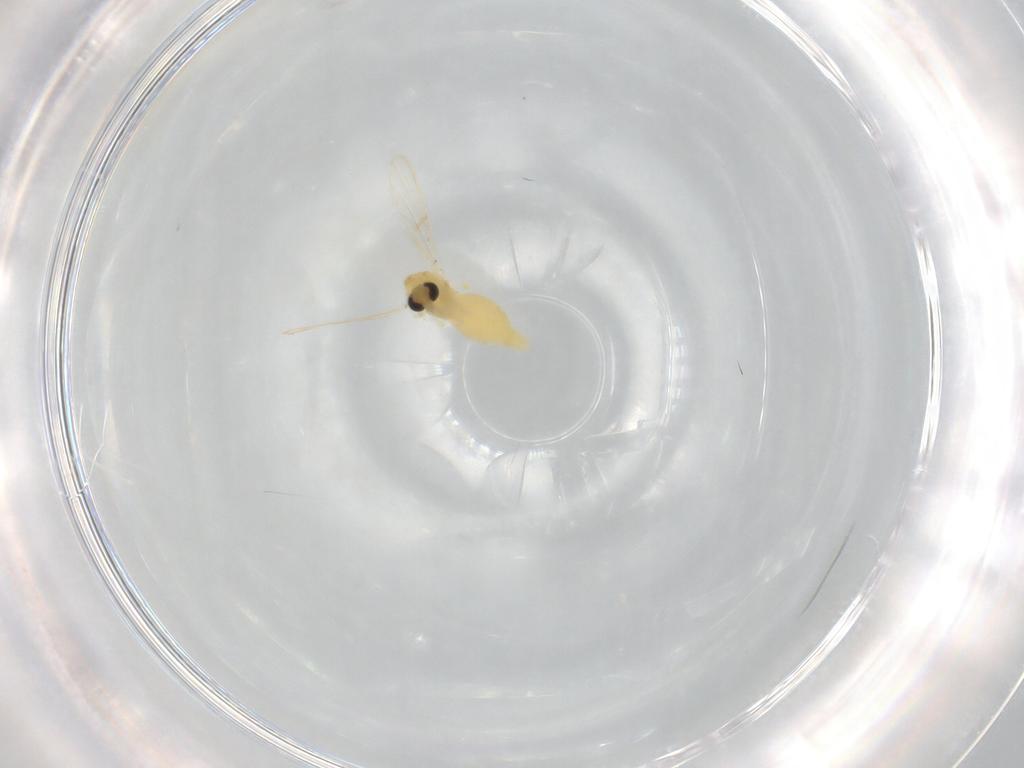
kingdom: Animalia
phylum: Arthropoda
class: Insecta
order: Diptera
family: Chironomidae
